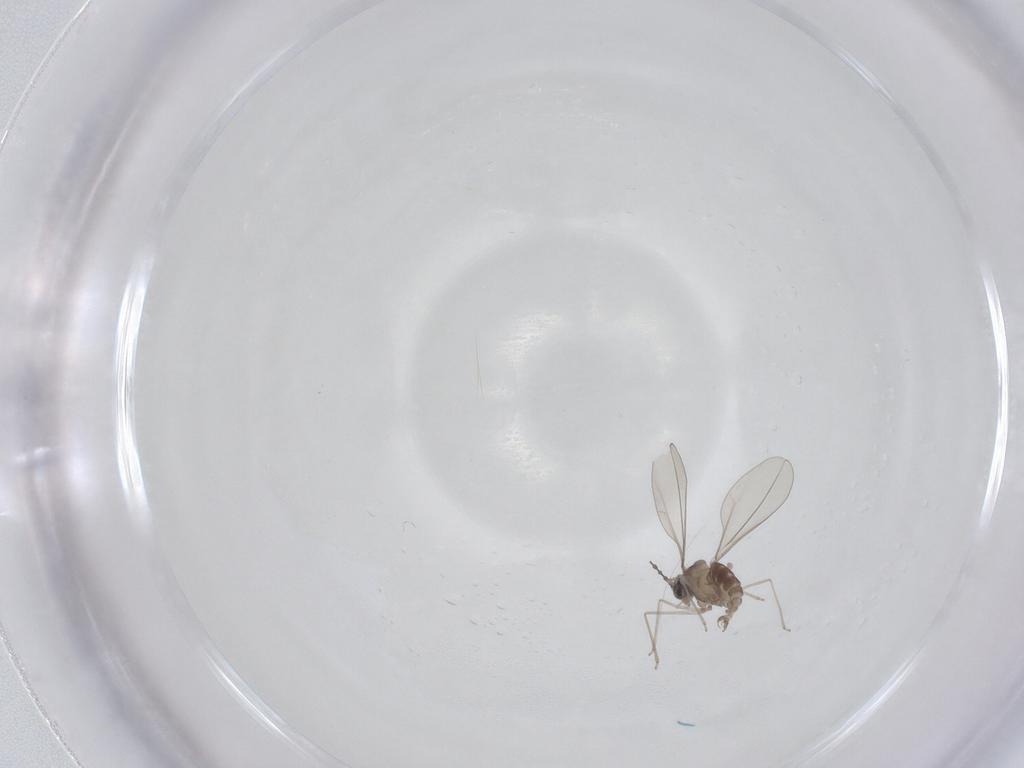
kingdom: Animalia
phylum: Arthropoda
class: Insecta
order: Diptera
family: Cecidomyiidae
